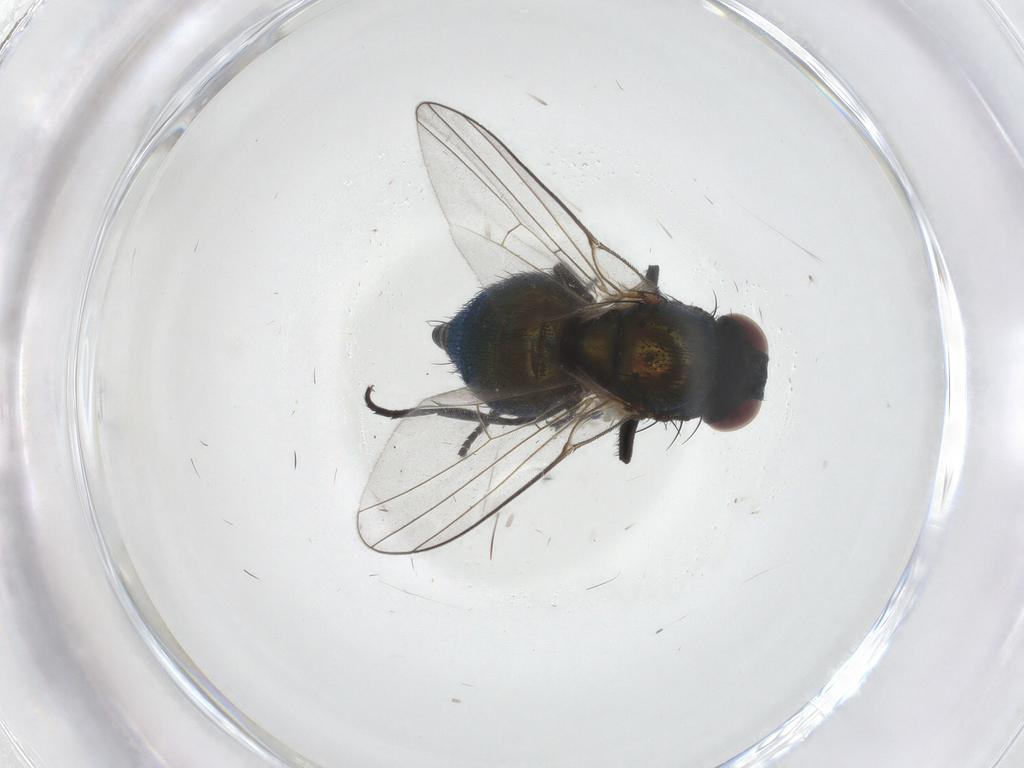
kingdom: Animalia
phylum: Arthropoda
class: Insecta
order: Diptera
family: Agromyzidae
